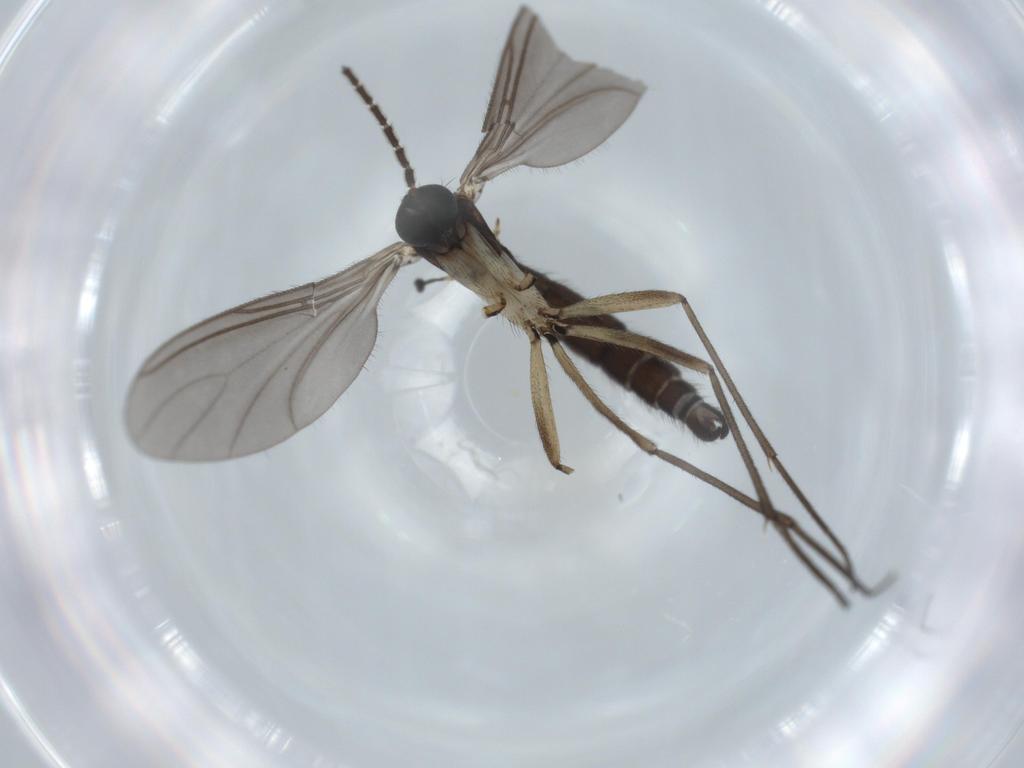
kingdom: Animalia
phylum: Arthropoda
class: Insecta
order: Diptera
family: Sciaridae
